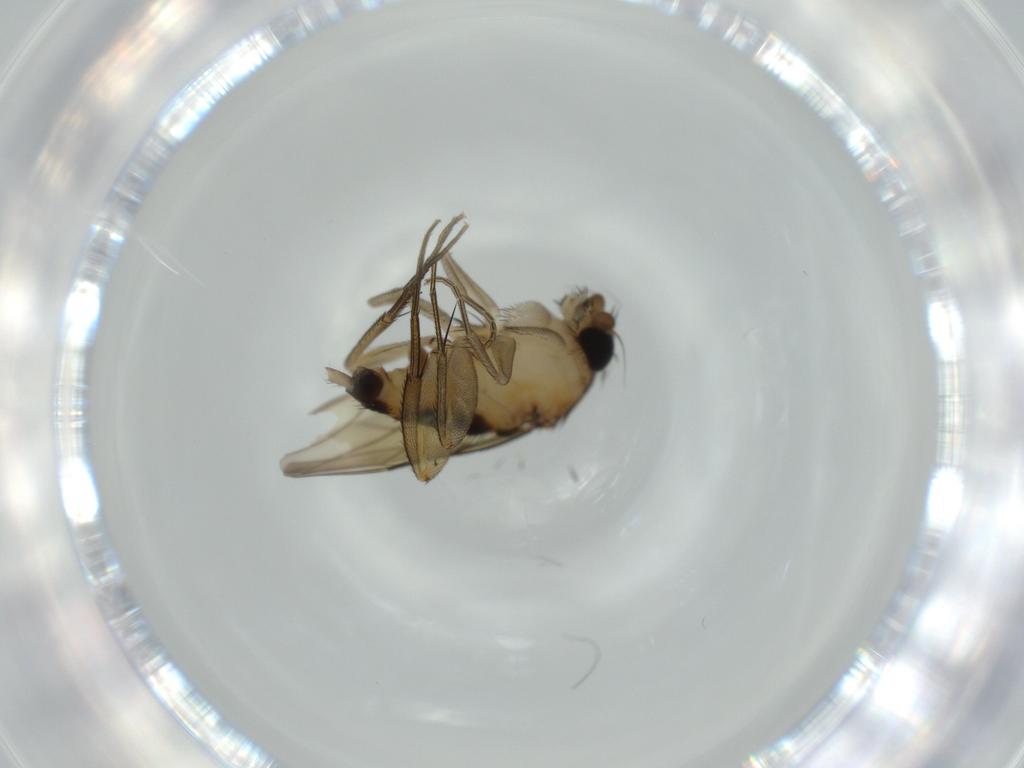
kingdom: Animalia
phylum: Arthropoda
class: Insecta
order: Diptera
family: Phoridae
